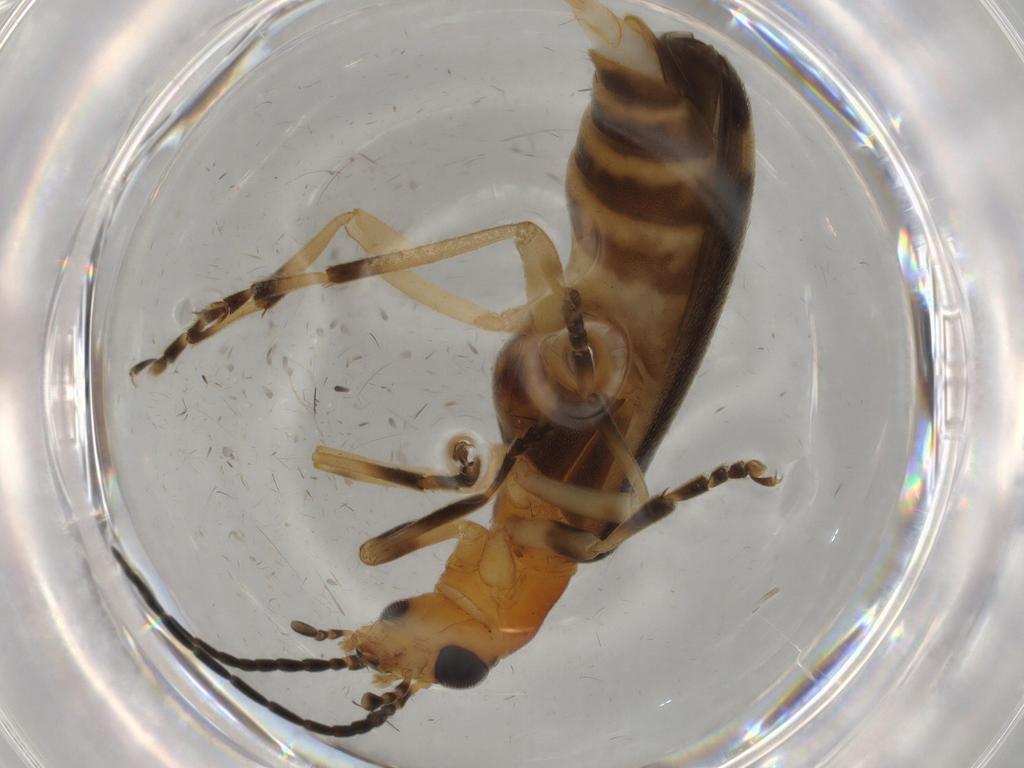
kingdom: Animalia
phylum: Arthropoda
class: Insecta
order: Coleoptera
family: Oedemeridae
